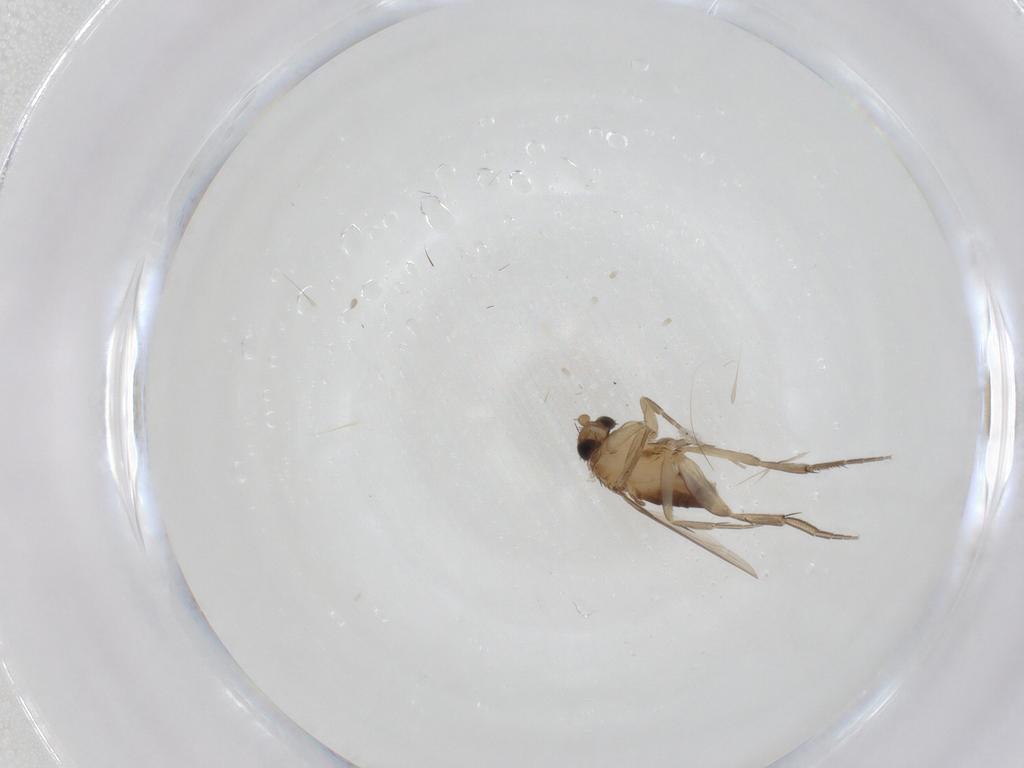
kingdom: Animalia
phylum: Arthropoda
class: Insecta
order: Diptera
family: Phoridae
